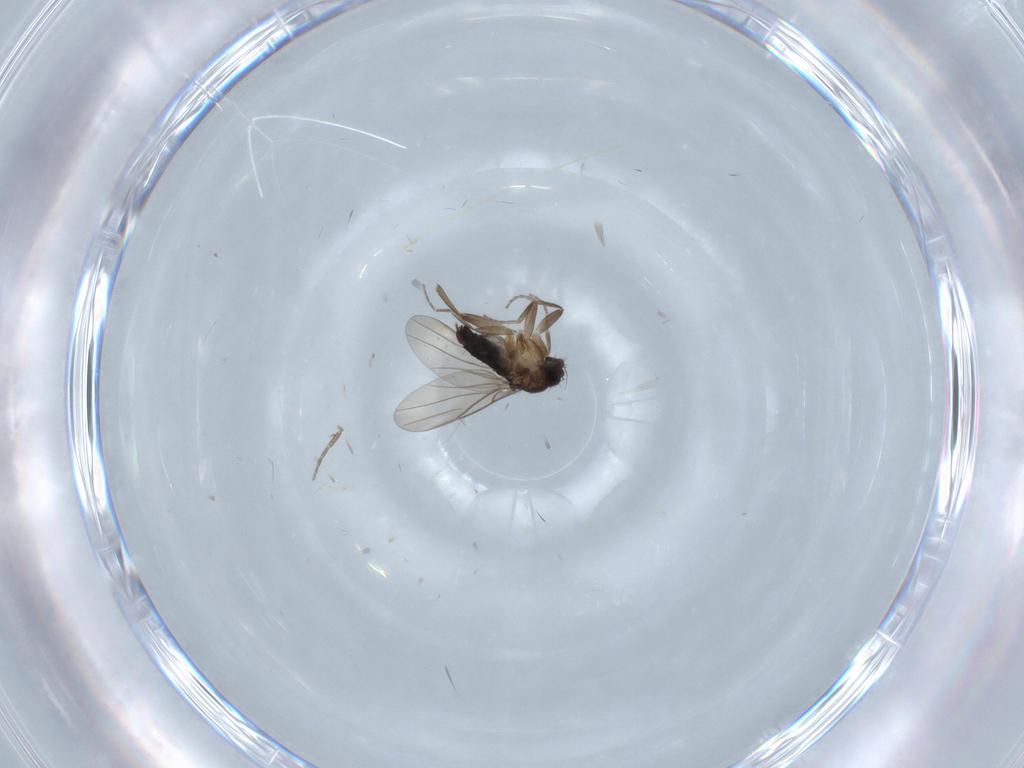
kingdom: Animalia
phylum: Arthropoda
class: Insecta
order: Diptera
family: Phoridae
